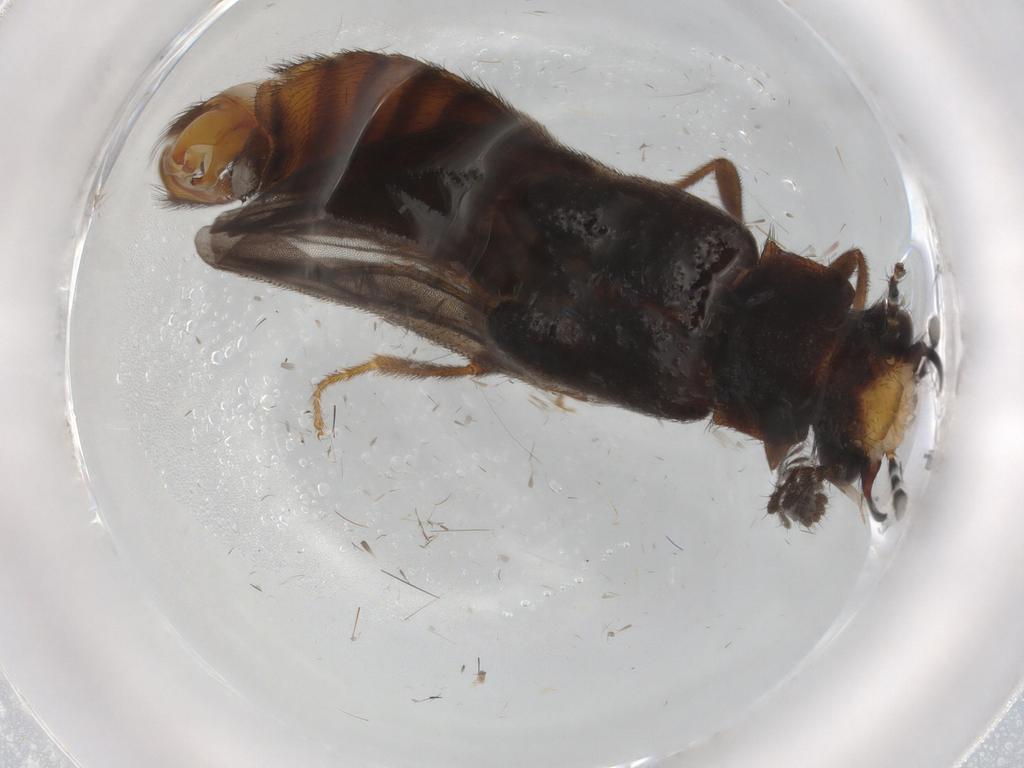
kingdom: Animalia
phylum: Arthropoda
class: Insecta
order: Coleoptera
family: Phengodidae
